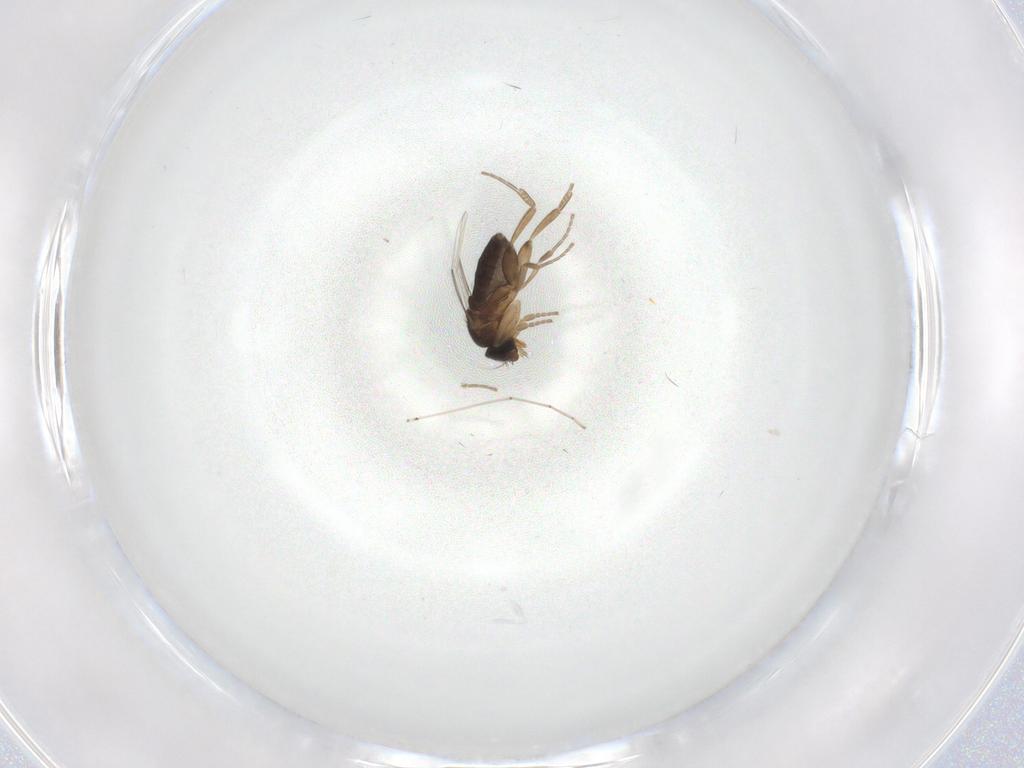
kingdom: Animalia
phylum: Arthropoda
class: Insecta
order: Diptera
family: Phoridae
